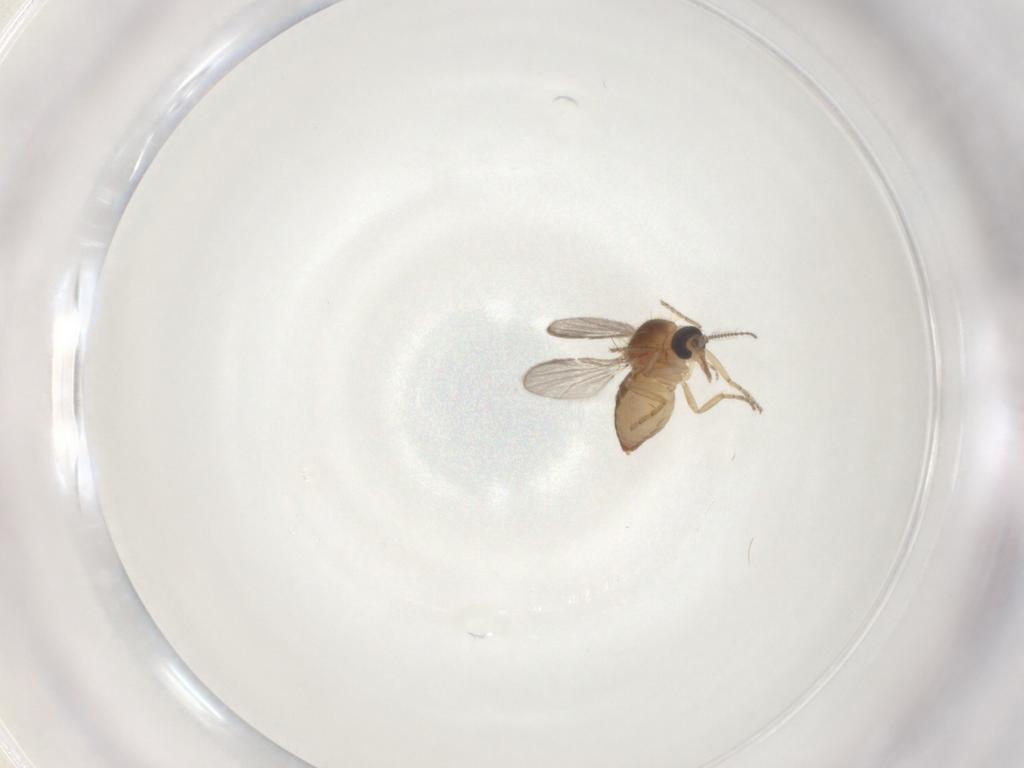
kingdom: Animalia
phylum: Arthropoda
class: Insecta
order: Diptera
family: Ceratopogonidae
